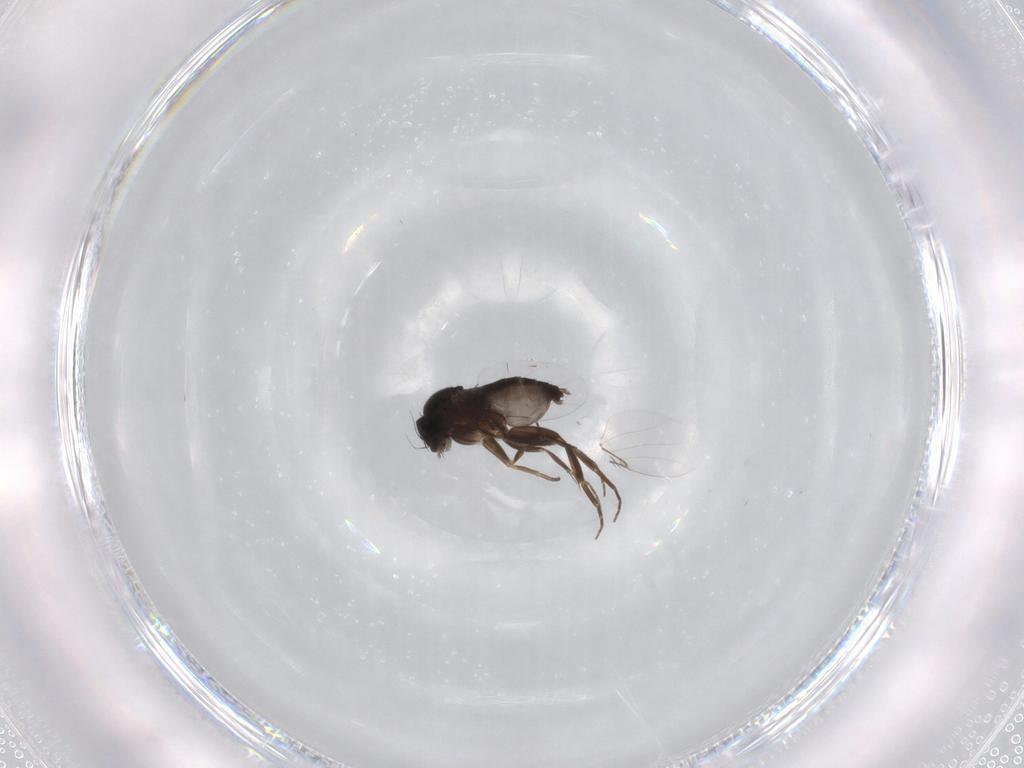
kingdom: Animalia
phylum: Arthropoda
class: Insecta
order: Diptera
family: Phoridae
